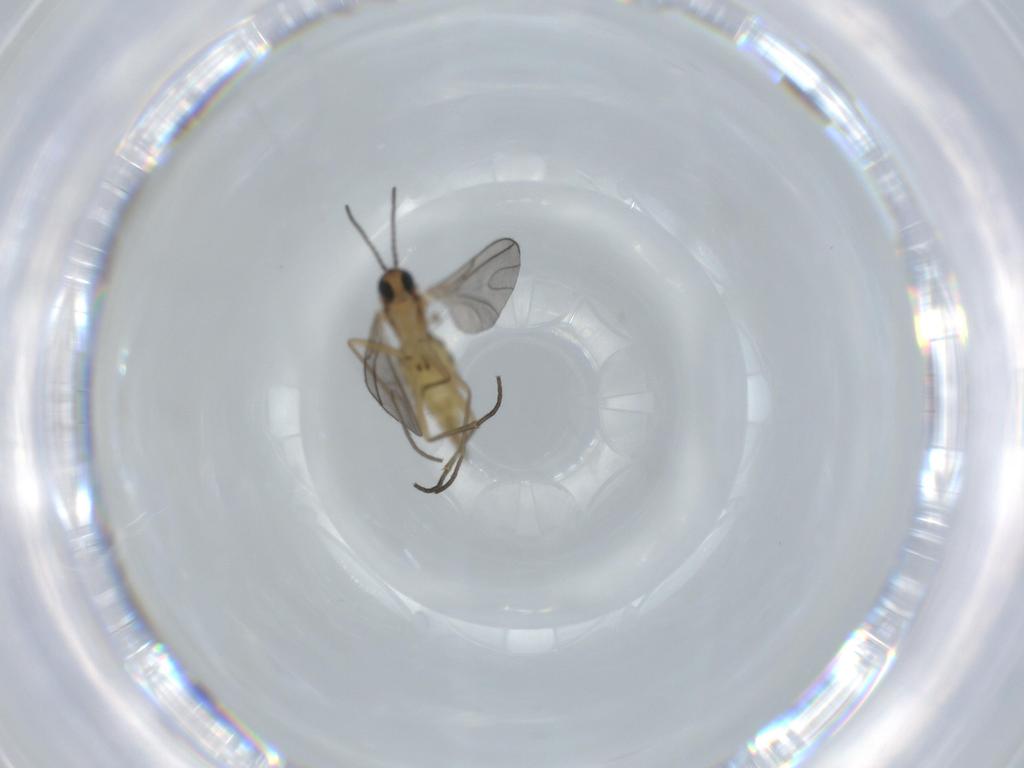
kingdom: Animalia
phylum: Arthropoda
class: Insecta
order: Diptera
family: Sciaridae
